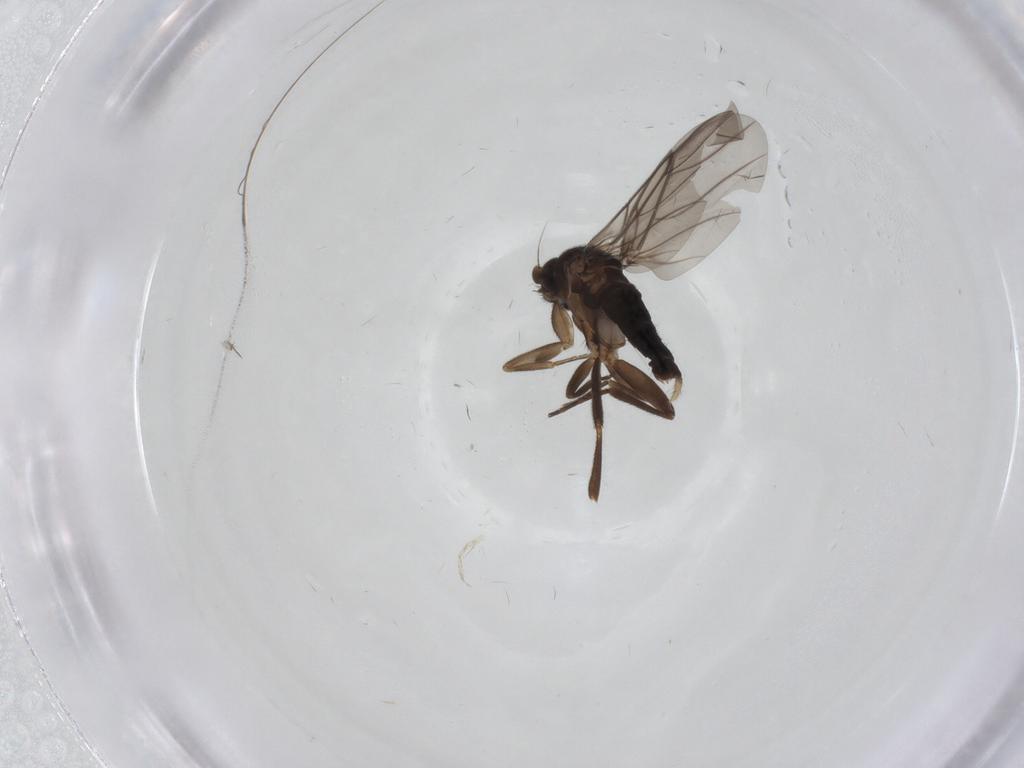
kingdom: Animalia
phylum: Arthropoda
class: Insecta
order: Diptera
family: Phoridae
